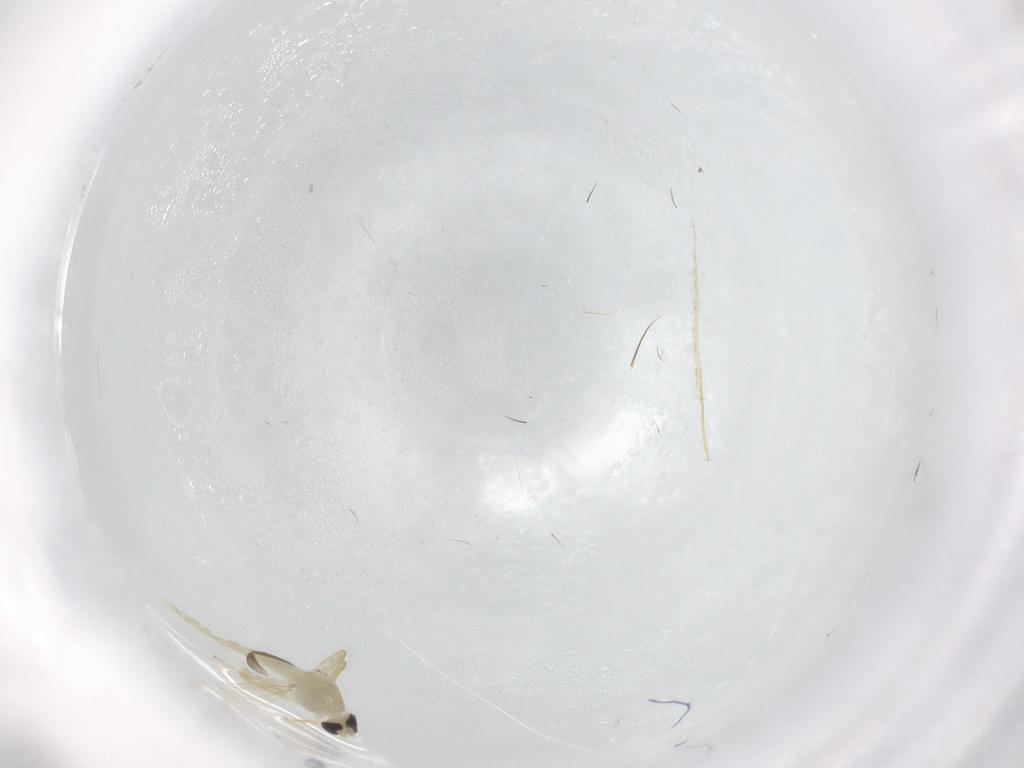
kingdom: Animalia
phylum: Arthropoda
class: Insecta
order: Diptera
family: Chironomidae
